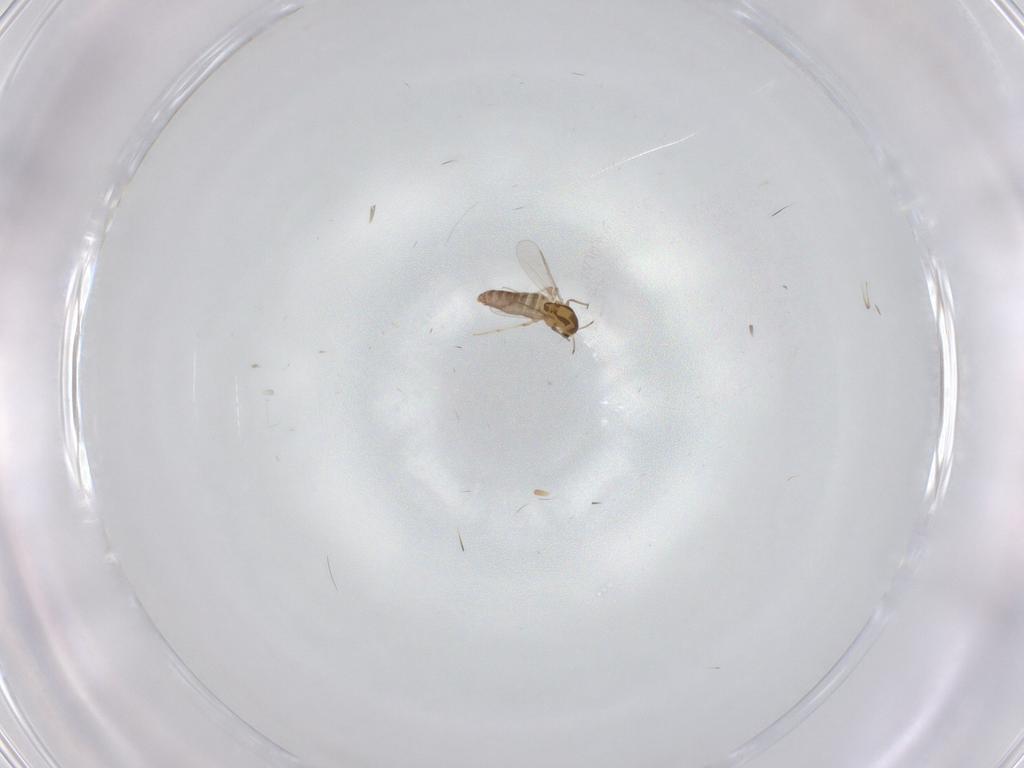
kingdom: Animalia
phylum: Arthropoda
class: Insecta
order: Diptera
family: Chironomidae
